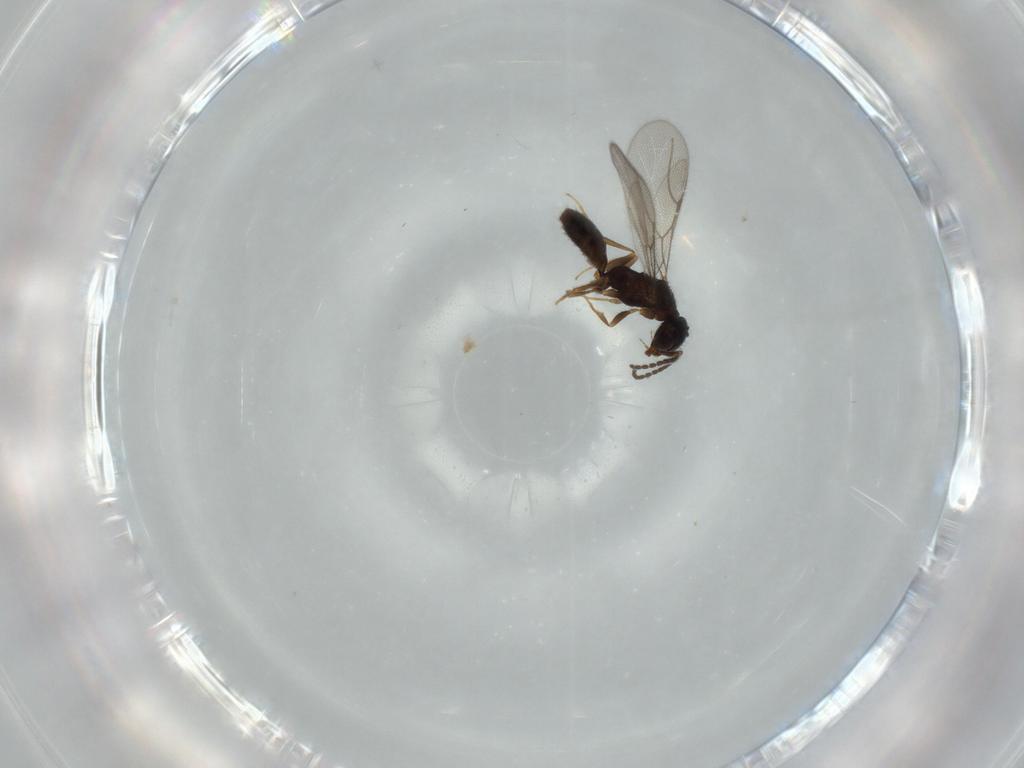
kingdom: Animalia
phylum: Arthropoda
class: Insecta
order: Hymenoptera
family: Bethylidae
